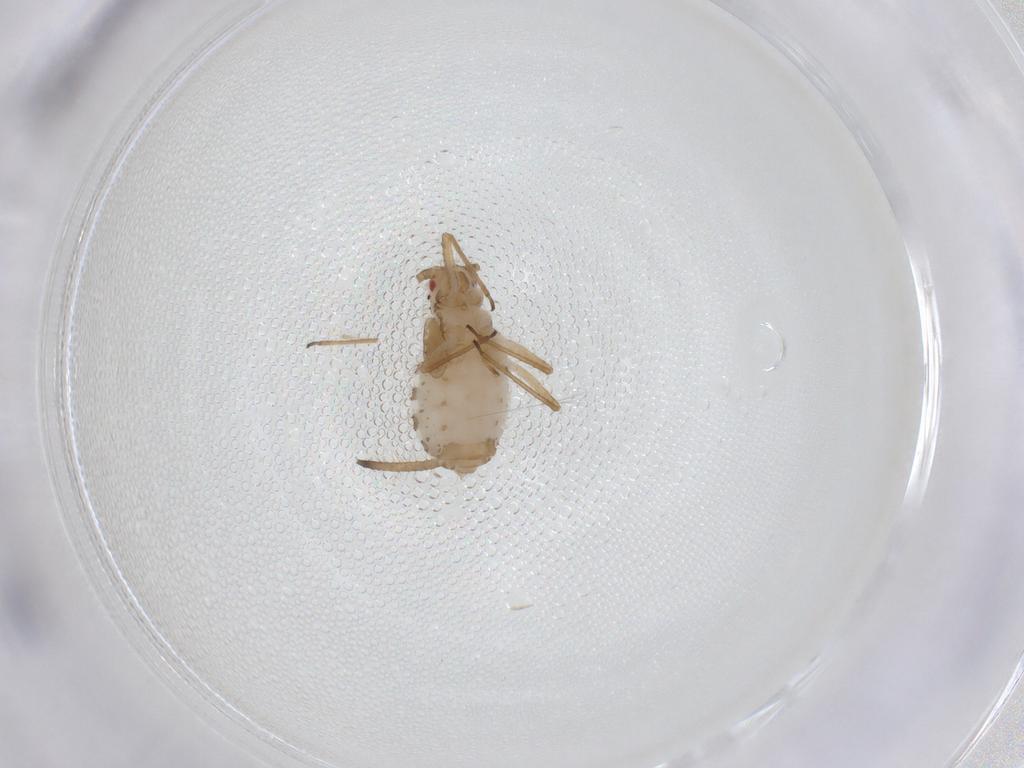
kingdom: Animalia
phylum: Arthropoda
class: Insecta
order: Hemiptera
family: Aphididae
